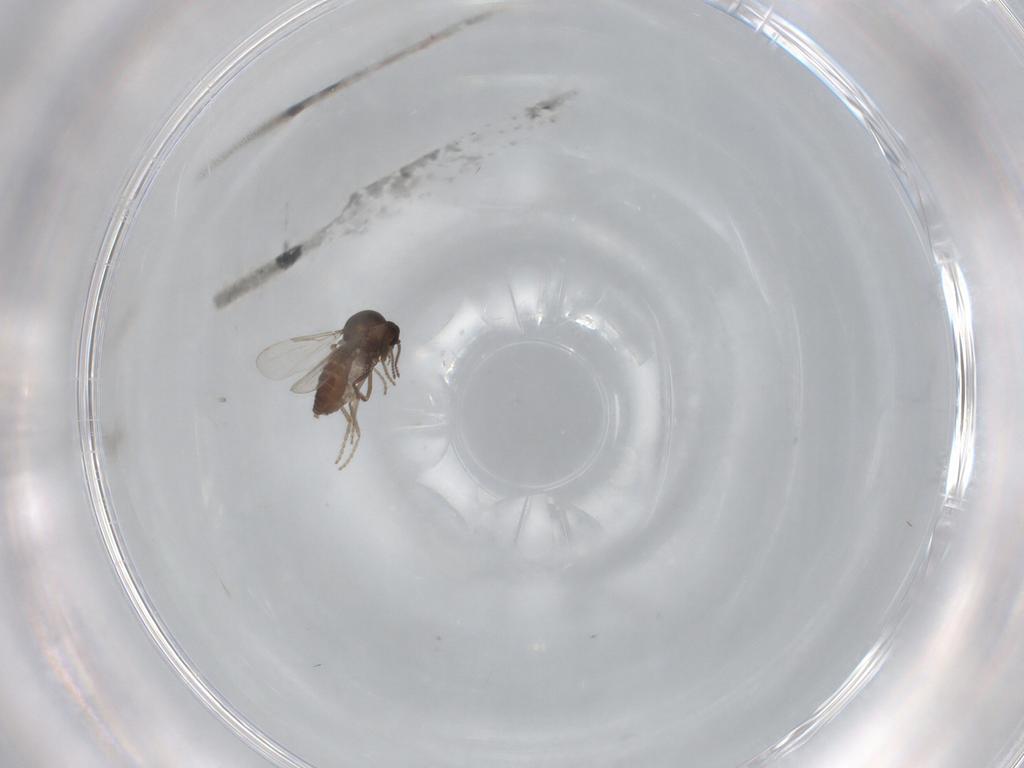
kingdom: Animalia
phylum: Arthropoda
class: Insecta
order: Diptera
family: Ceratopogonidae
